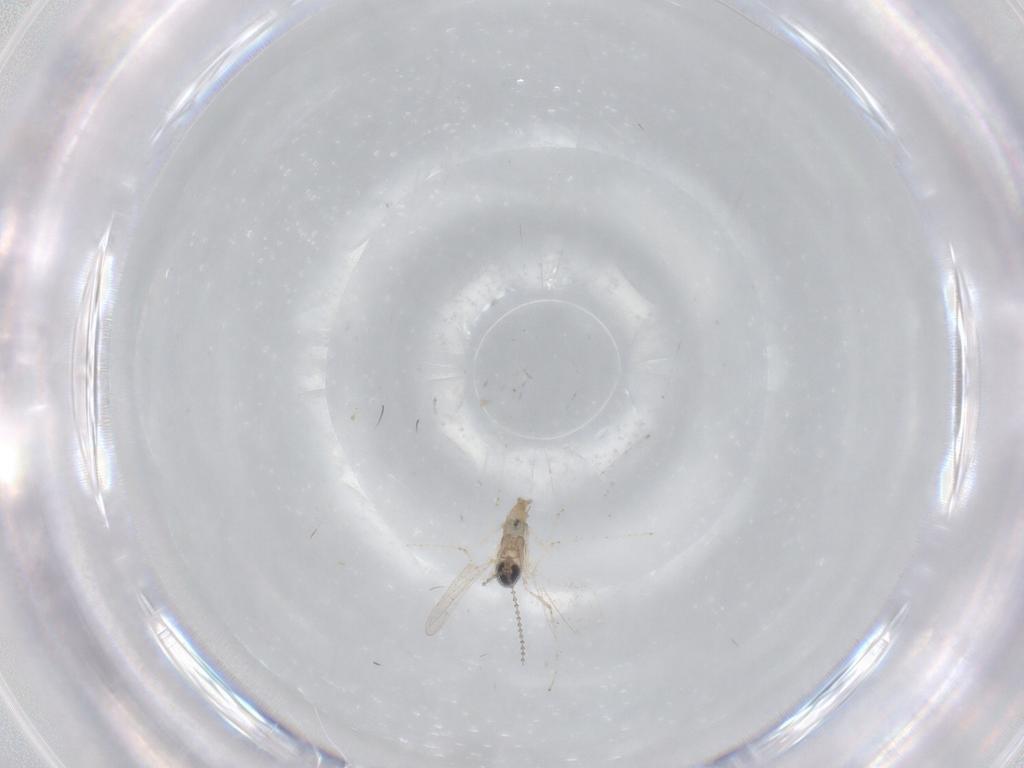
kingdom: Animalia
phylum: Arthropoda
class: Insecta
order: Diptera
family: Cecidomyiidae
